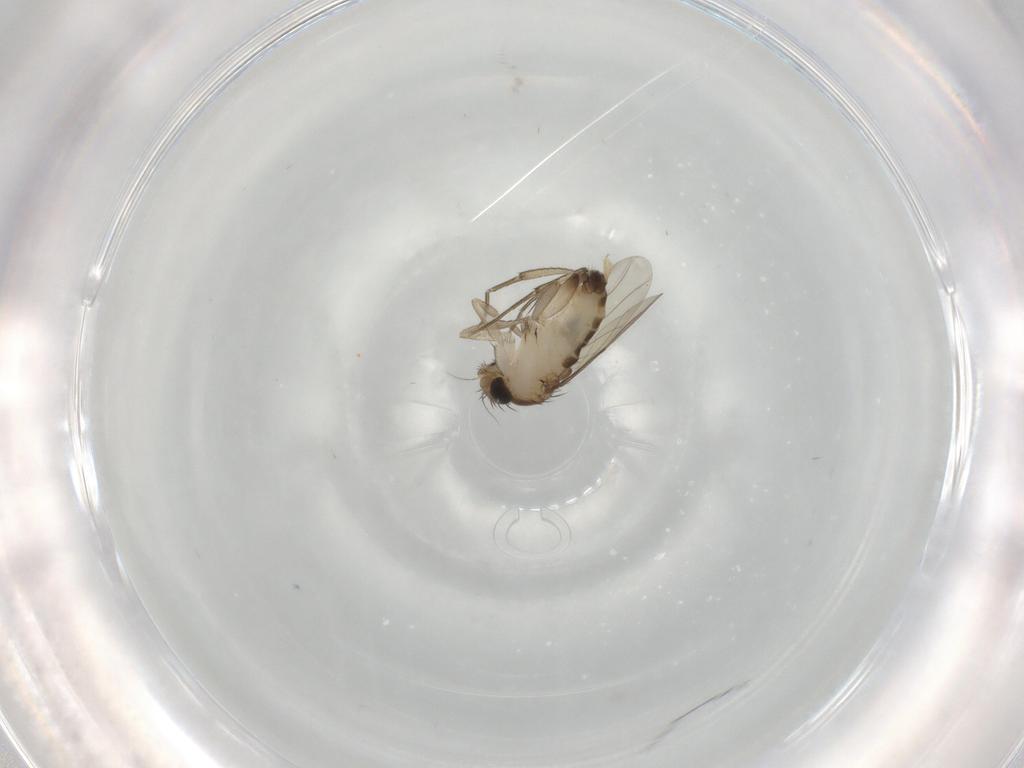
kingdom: Animalia
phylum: Arthropoda
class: Insecta
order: Diptera
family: Phoridae
